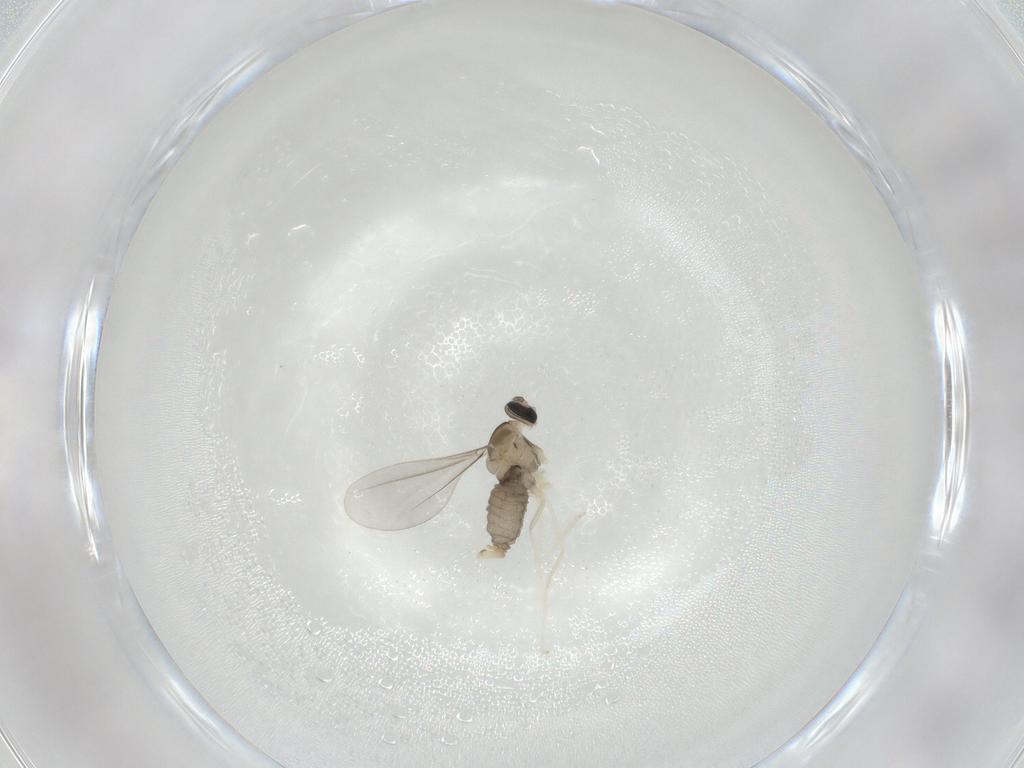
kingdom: Animalia
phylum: Arthropoda
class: Insecta
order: Diptera
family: Cecidomyiidae
